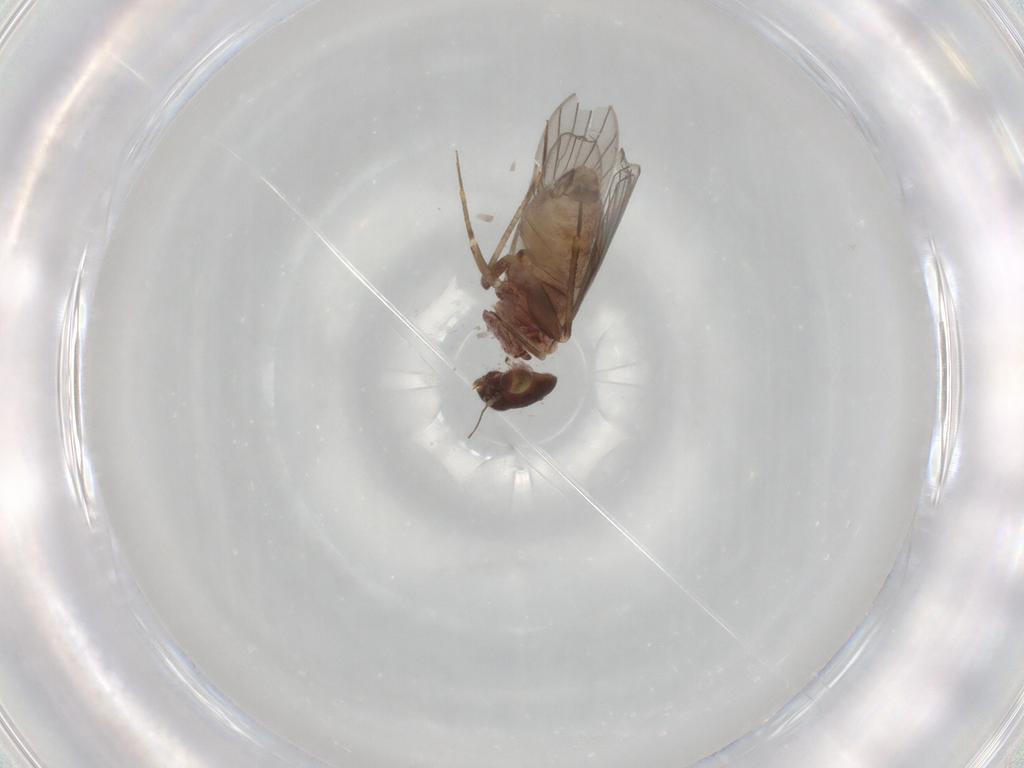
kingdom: Animalia
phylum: Arthropoda
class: Insecta
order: Psocodea
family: Lepidopsocidae
